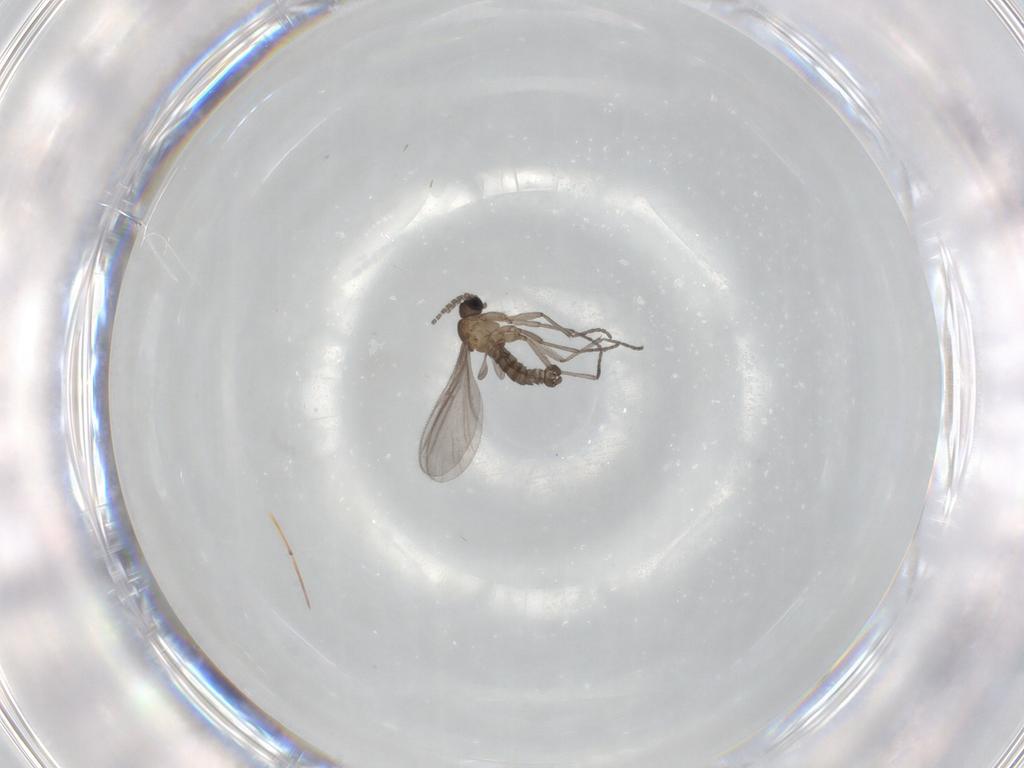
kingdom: Animalia
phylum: Arthropoda
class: Insecta
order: Diptera
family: Sciaridae
